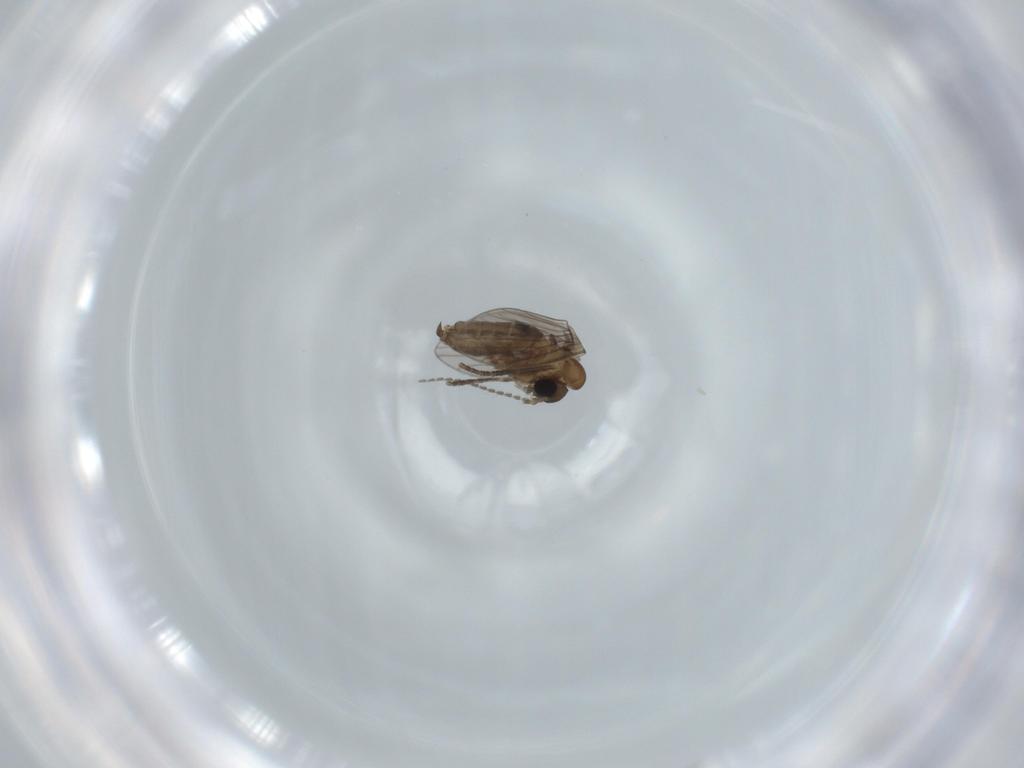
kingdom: Animalia
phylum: Arthropoda
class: Insecta
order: Diptera
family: Psychodidae
